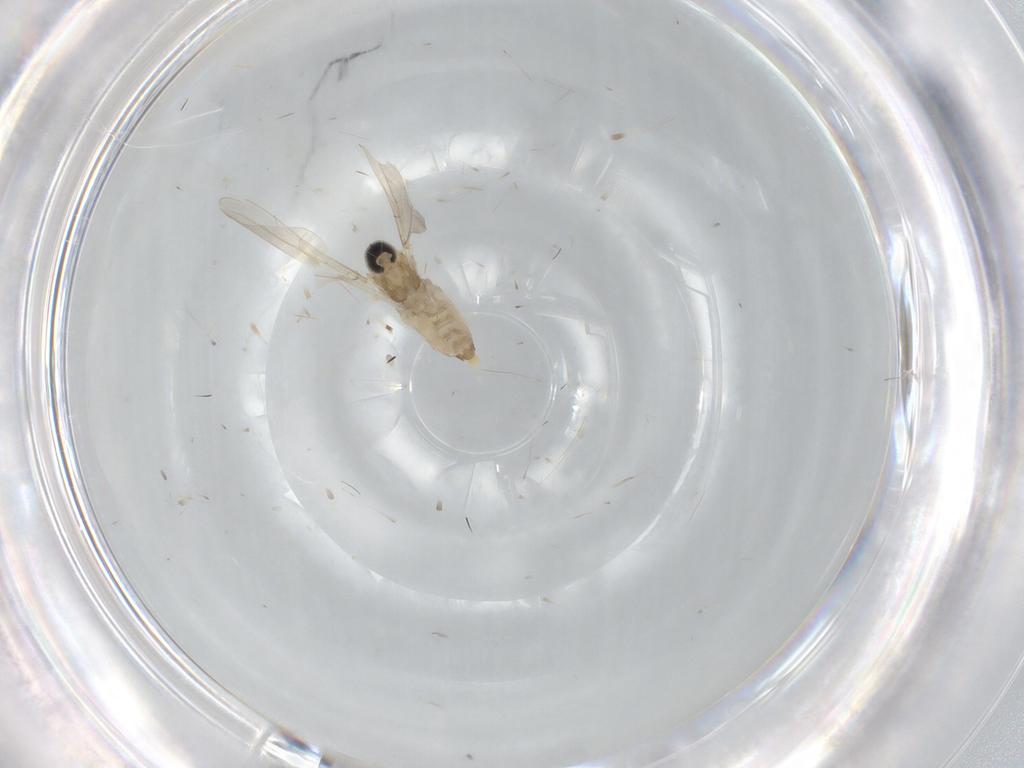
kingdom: Animalia
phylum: Arthropoda
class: Insecta
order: Diptera
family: Cecidomyiidae
